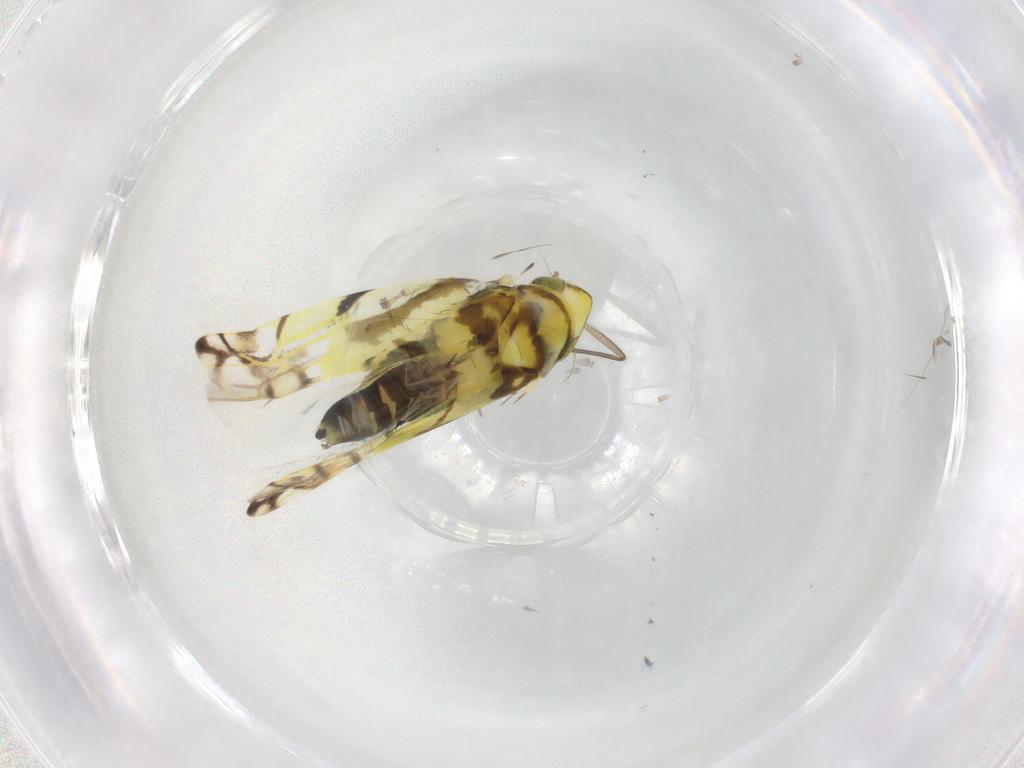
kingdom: Animalia
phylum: Arthropoda
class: Insecta
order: Hemiptera
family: Cicadellidae
